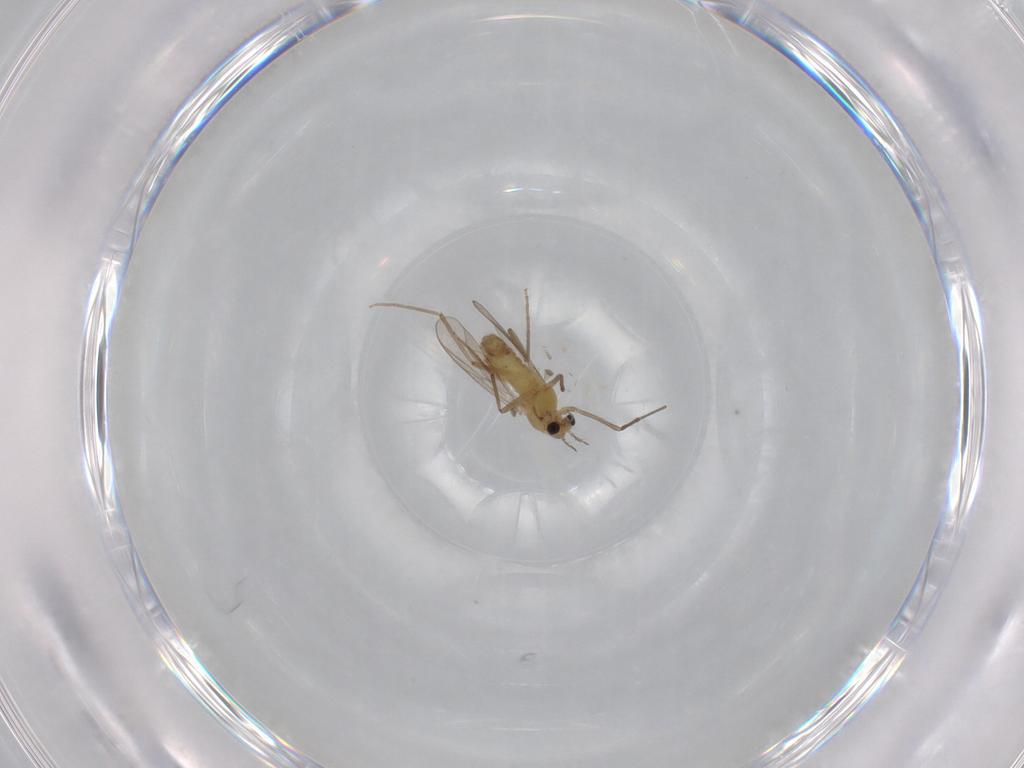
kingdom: Animalia
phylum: Arthropoda
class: Insecta
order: Diptera
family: Chironomidae
